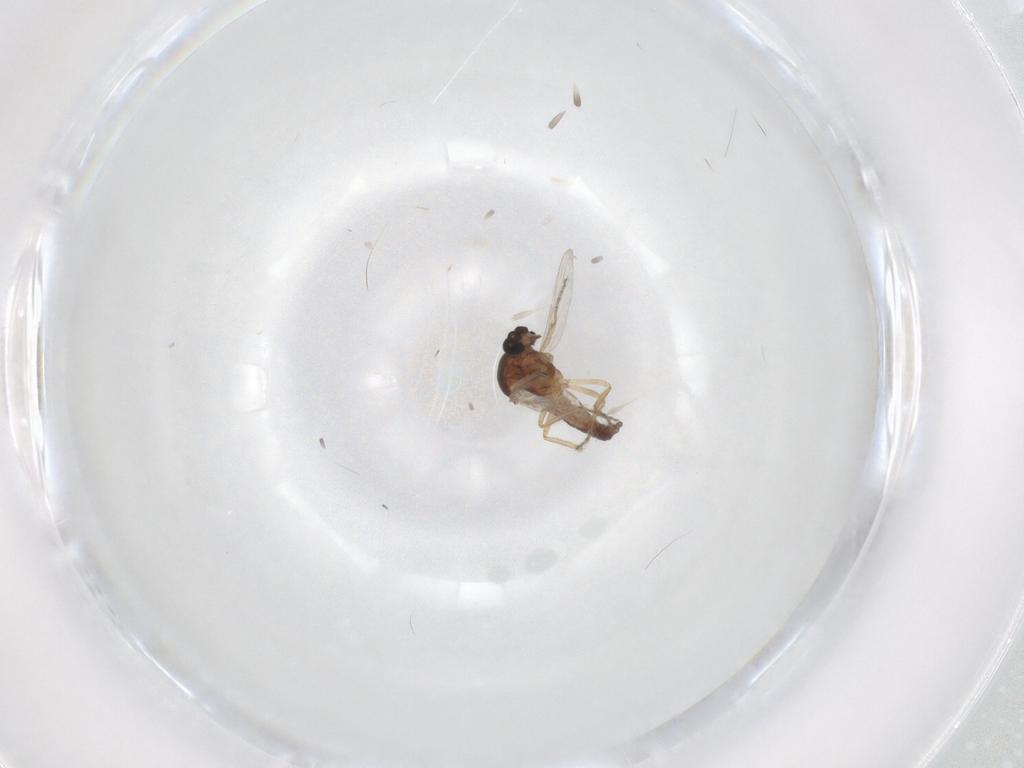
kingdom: Animalia
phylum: Arthropoda
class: Insecta
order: Diptera
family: Ceratopogonidae
